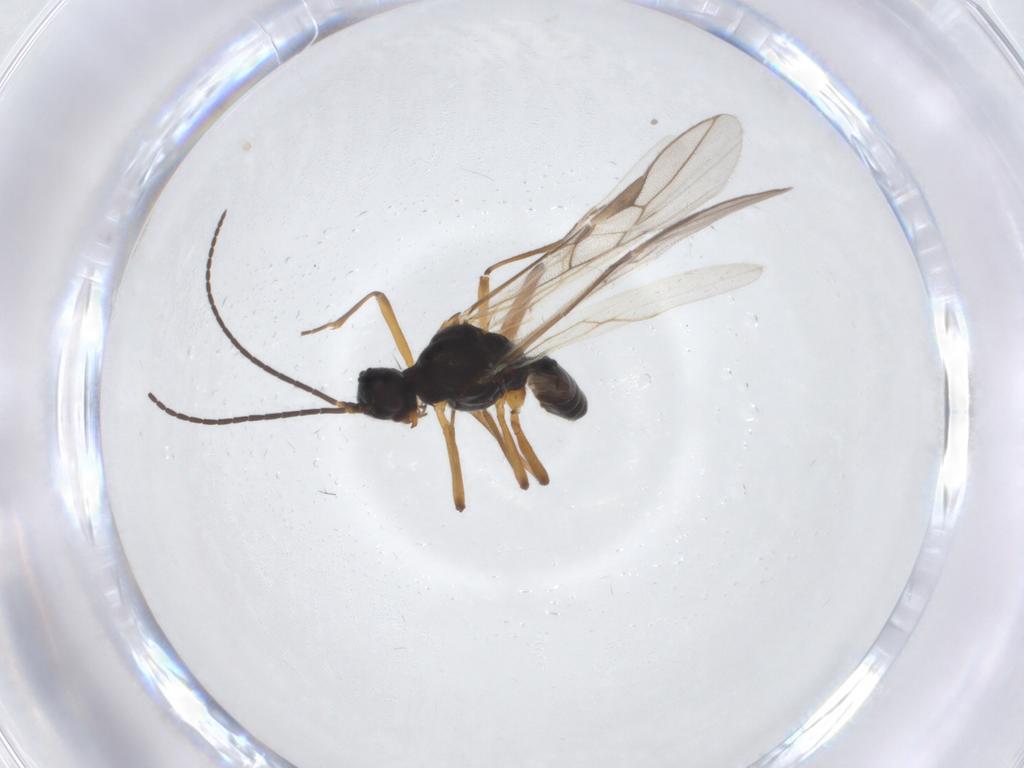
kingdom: Animalia
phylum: Arthropoda
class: Insecta
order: Hymenoptera
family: Braconidae
